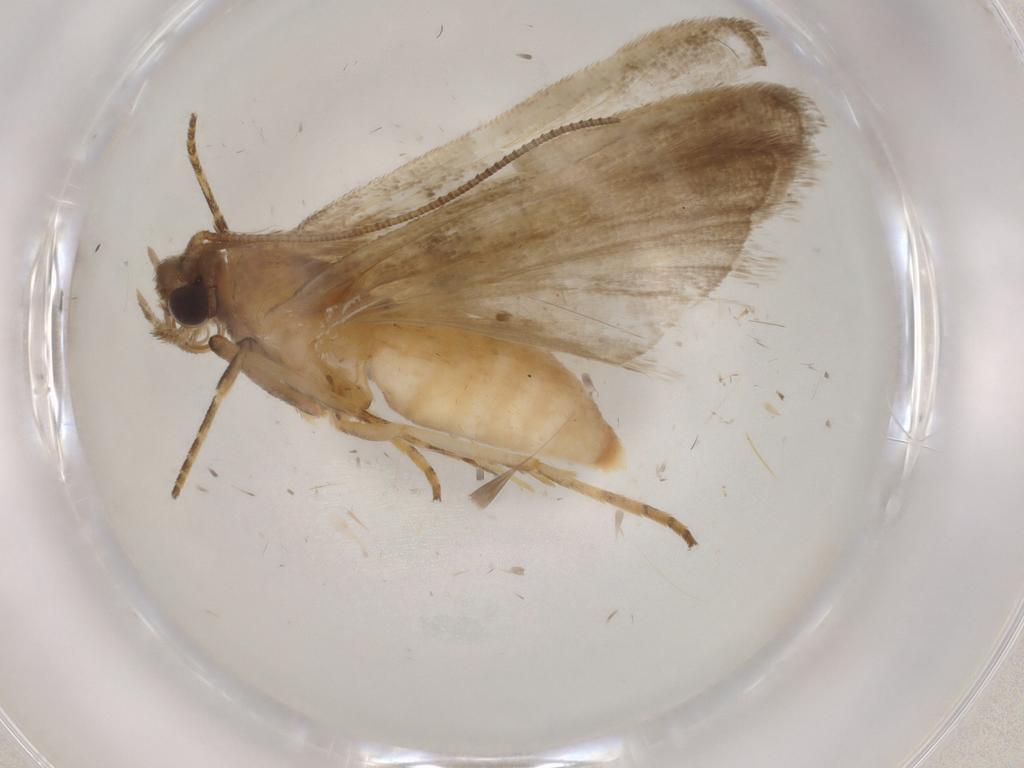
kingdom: Animalia
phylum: Arthropoda
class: Insecta
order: Lepidoptera
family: Noctuidae
